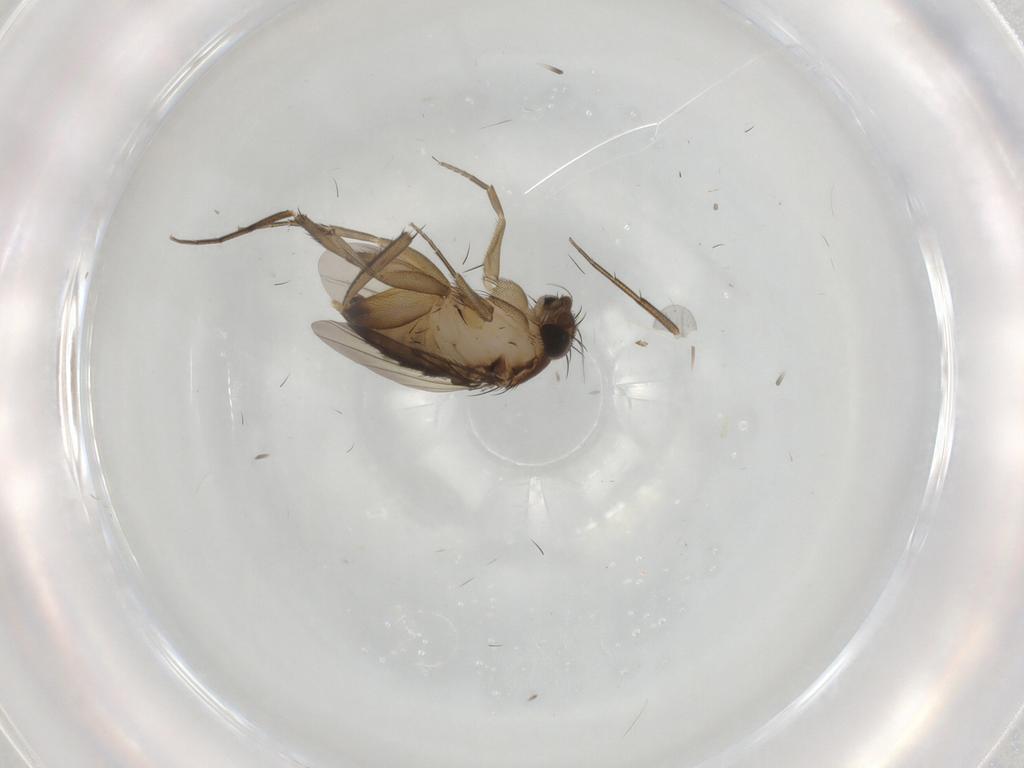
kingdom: Animalia
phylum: Arthropoda
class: Insecta
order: Diptera
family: Phoridae
